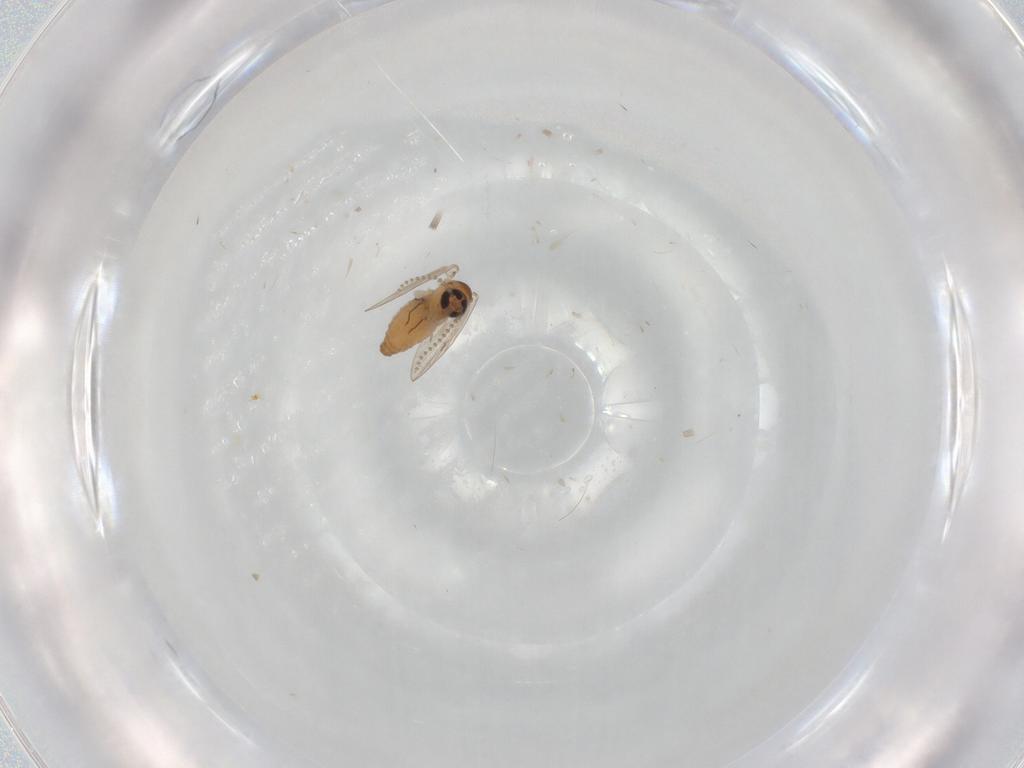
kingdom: Animalia
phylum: Arthropoda
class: Insecta
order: Diptera
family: Ceratopogonidae
